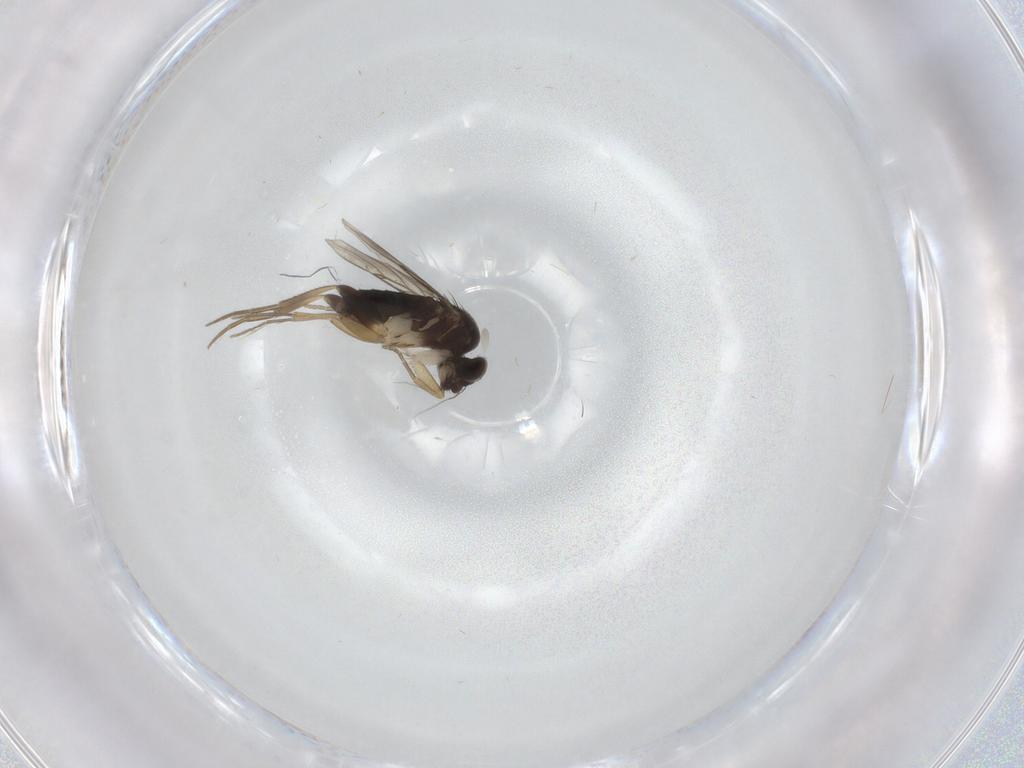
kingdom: Animalia
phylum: Arthropoda
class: Insecta
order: Diptera
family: Phoridae
